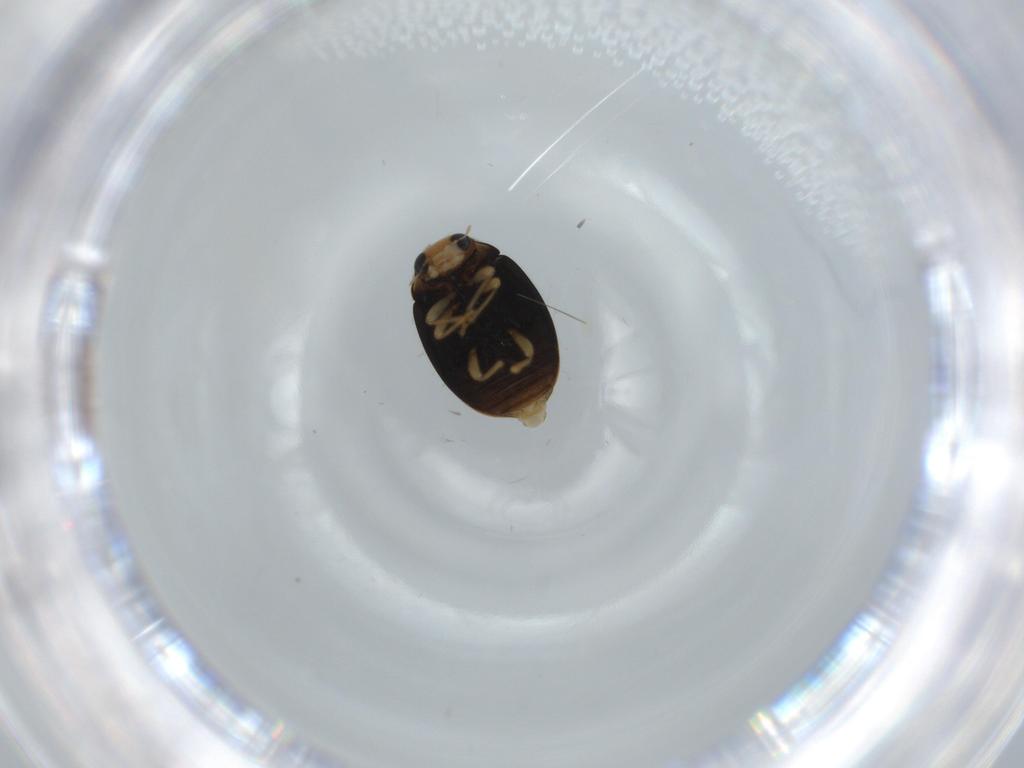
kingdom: Animalia
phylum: Arthropoda
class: Insecta
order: Coleoptera
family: Coccinellidae
